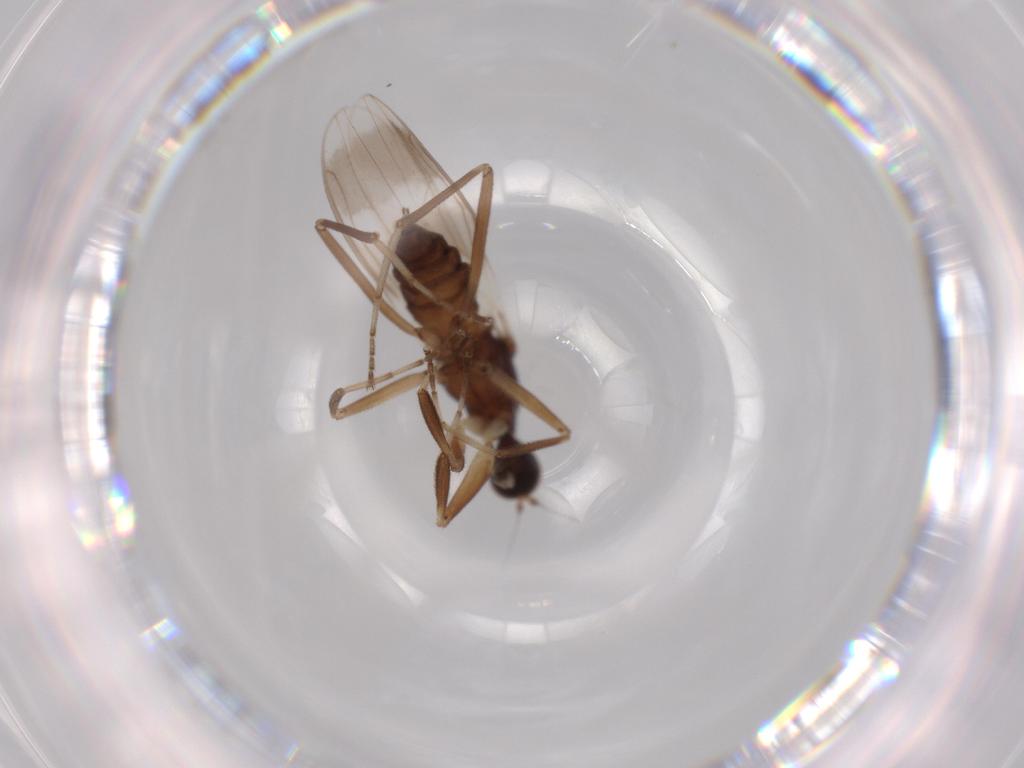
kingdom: Animalia
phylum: Arthropoda
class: Insecta
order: Diptera
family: Hybotidae
